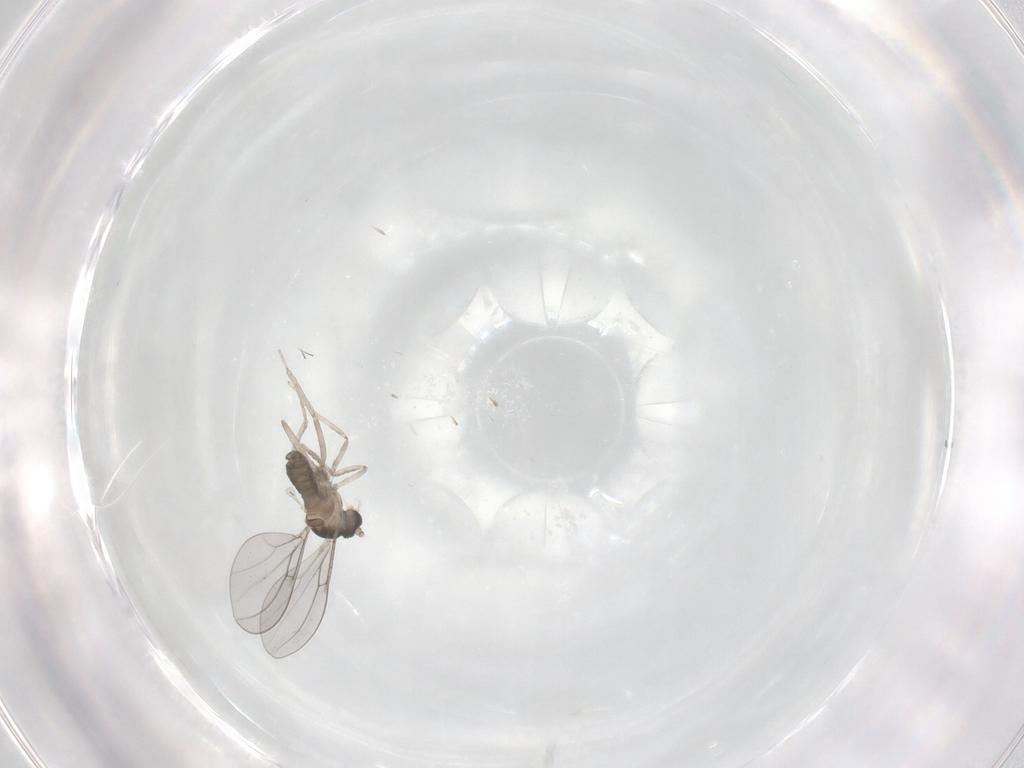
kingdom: Animalia
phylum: Arthropoda
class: Insecta
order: Diptera
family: Cecidomyiidae
